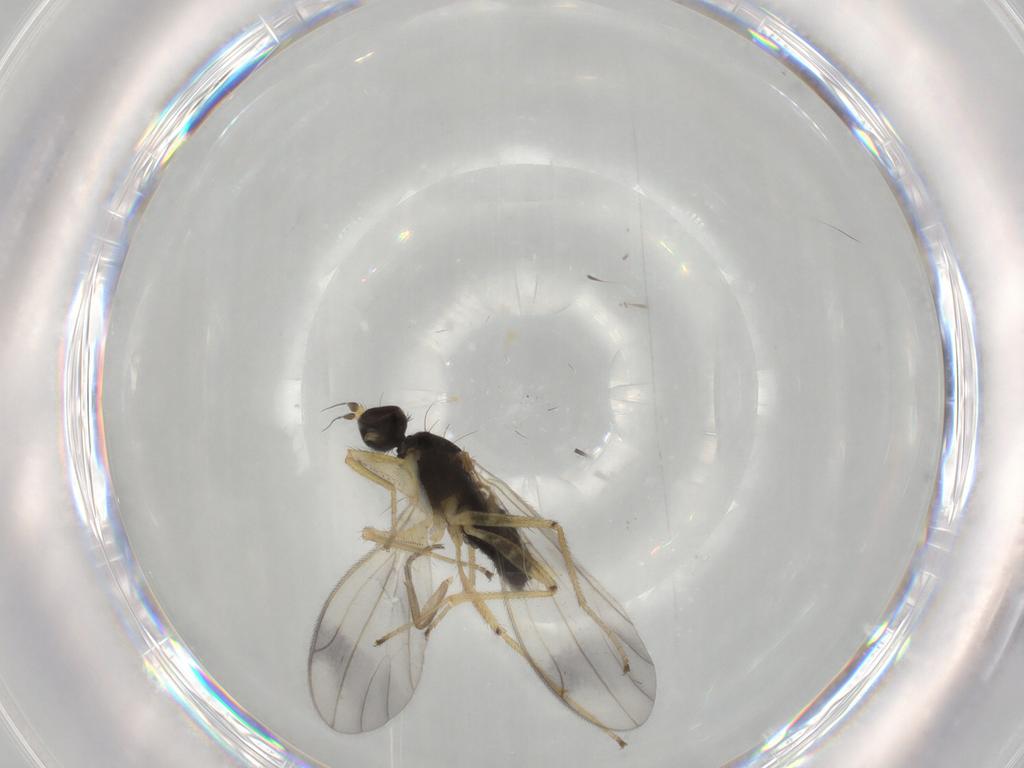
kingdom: Animalia
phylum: Arthropoda
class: Insecta
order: Diptera
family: Empididae
